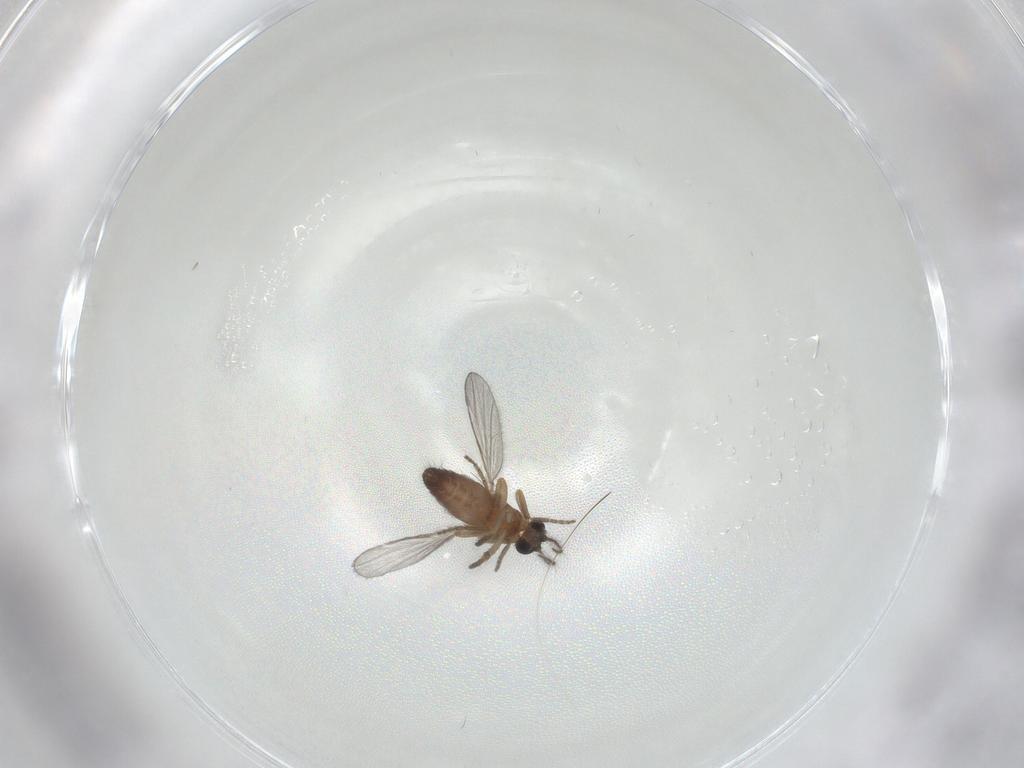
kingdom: Animalia
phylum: Arthropoda
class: Insecta
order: Diptera
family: Ceratopogonidae
